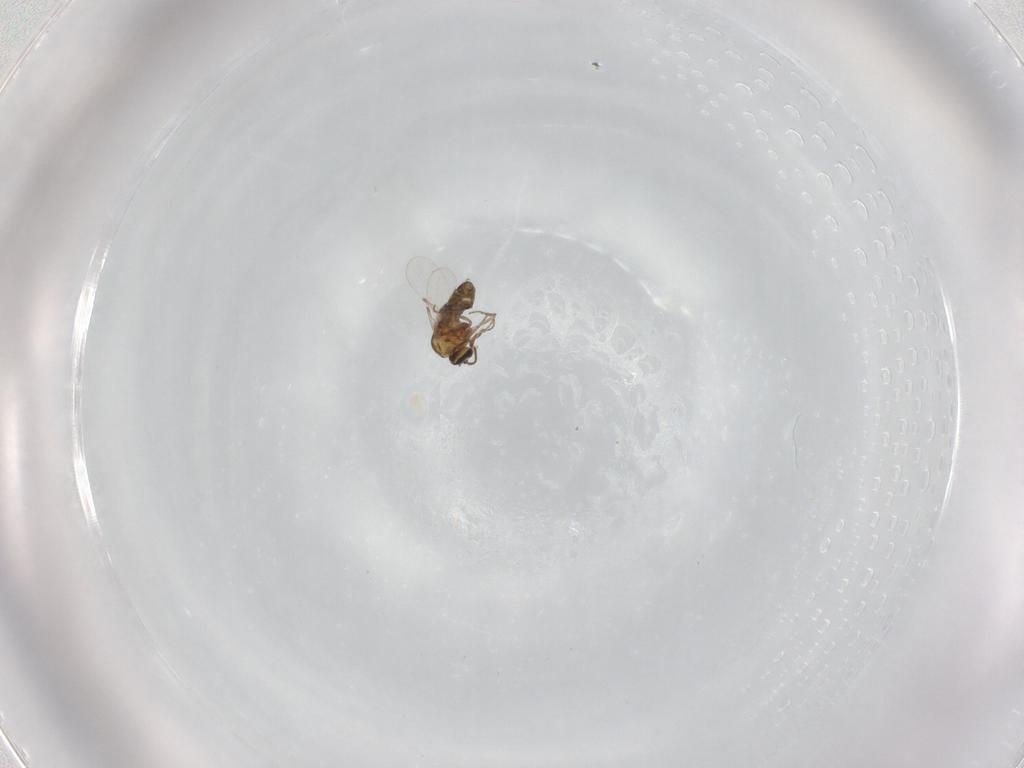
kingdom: Animalia
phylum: Arthropoda
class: Insecta
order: Diptera
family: Ceratopogonidae
